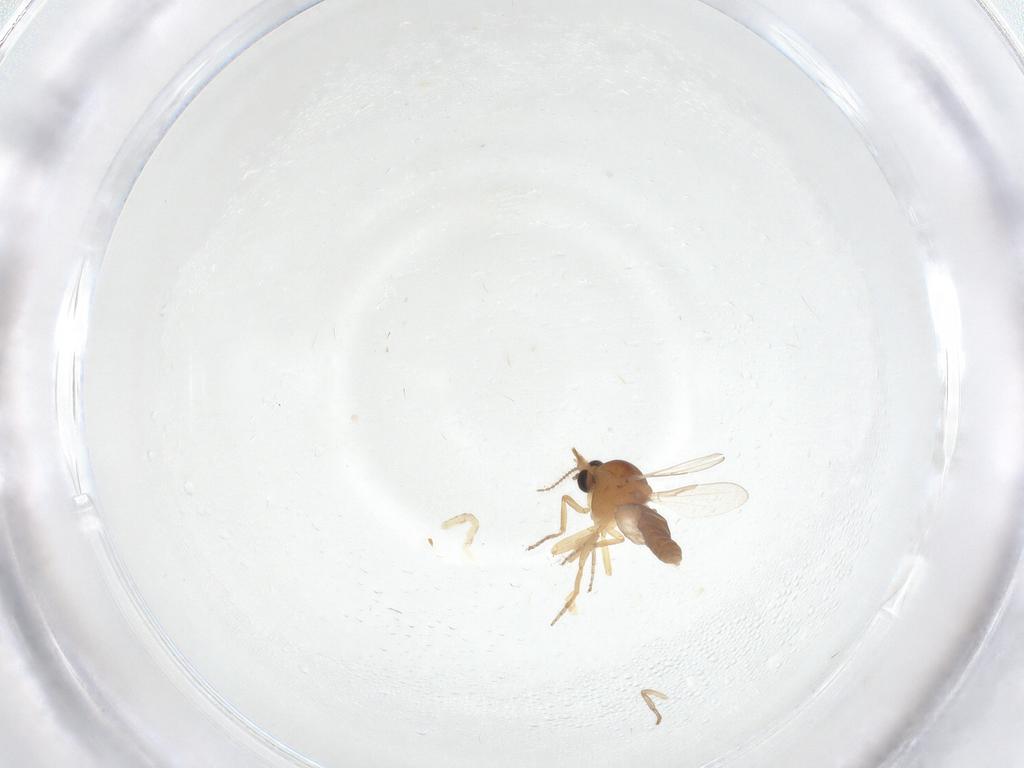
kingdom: Animalia
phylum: Arthropoda
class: Insecta
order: Diptera
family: Ceratopogonidae
